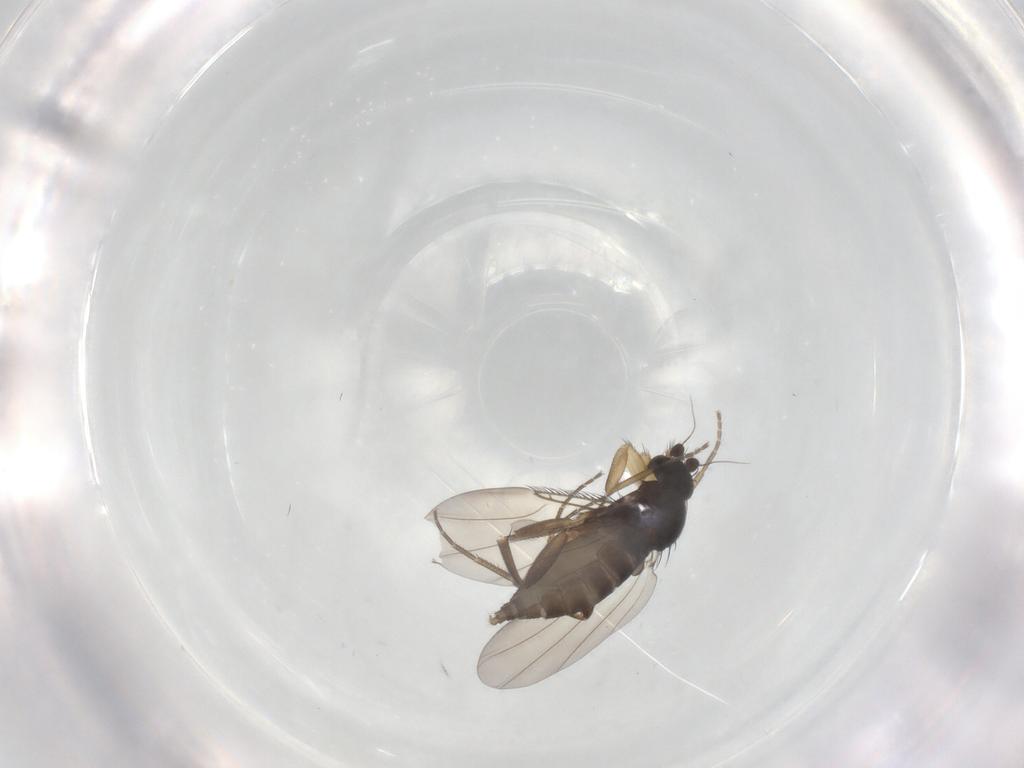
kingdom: Animalia
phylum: Arthropoda
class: Insecta
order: Diptera
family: Phoridae
